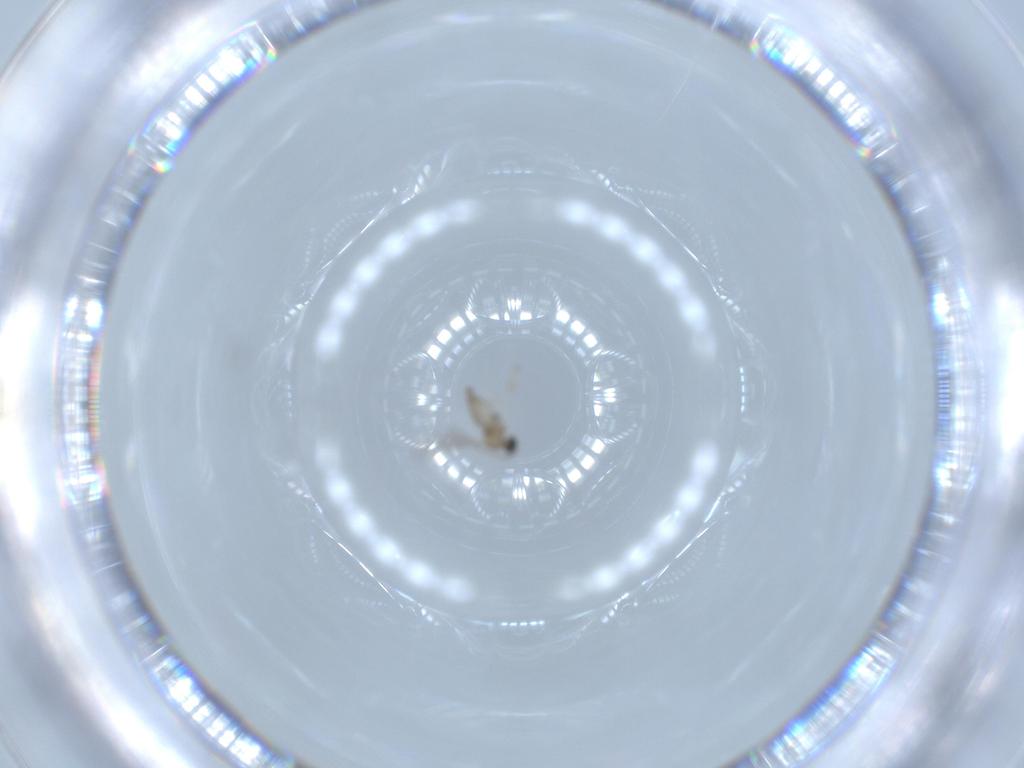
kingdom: Animalia
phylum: Arthropoda
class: Insecta
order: Diptera
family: Cecidomyiidae
